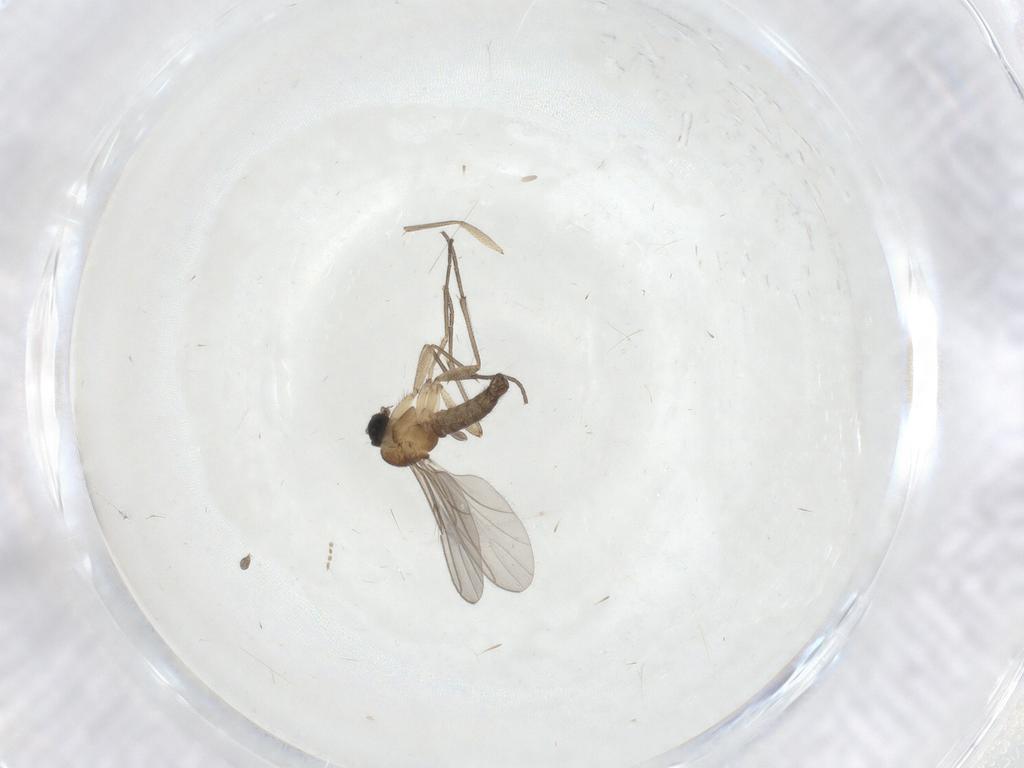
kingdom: Animalia
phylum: Arthropoda
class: Insecta
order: Diptera
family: Sciaridae
